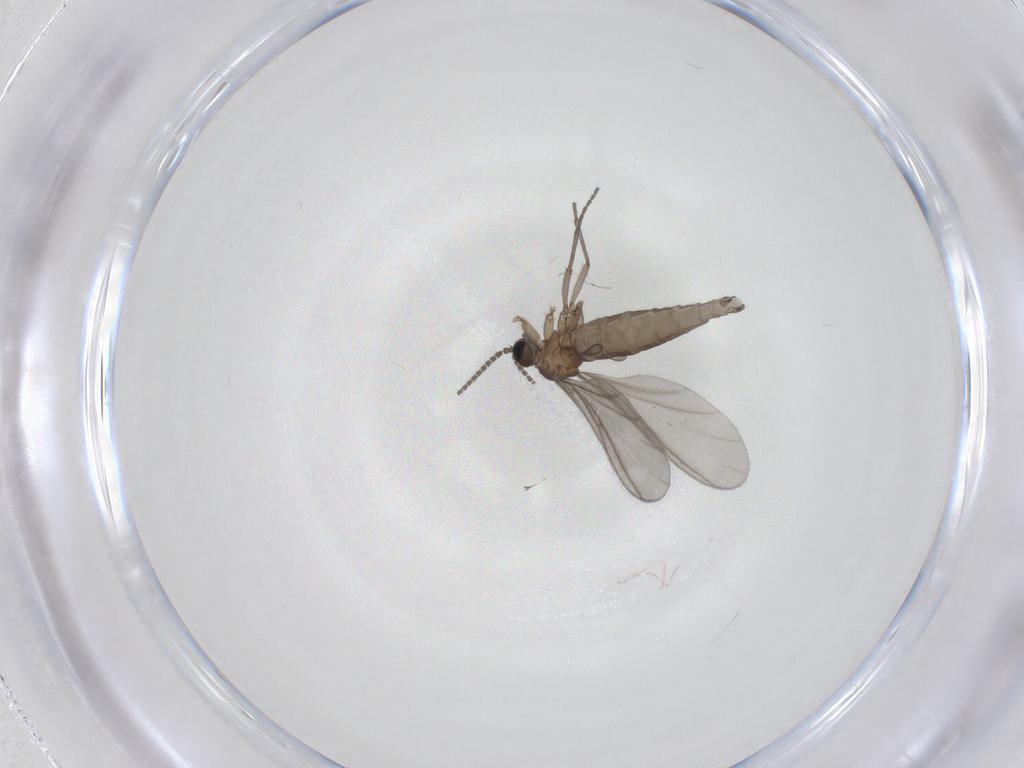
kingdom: Animalia
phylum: Arthropoda
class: Insecta
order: Diptera
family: Sciaridae
